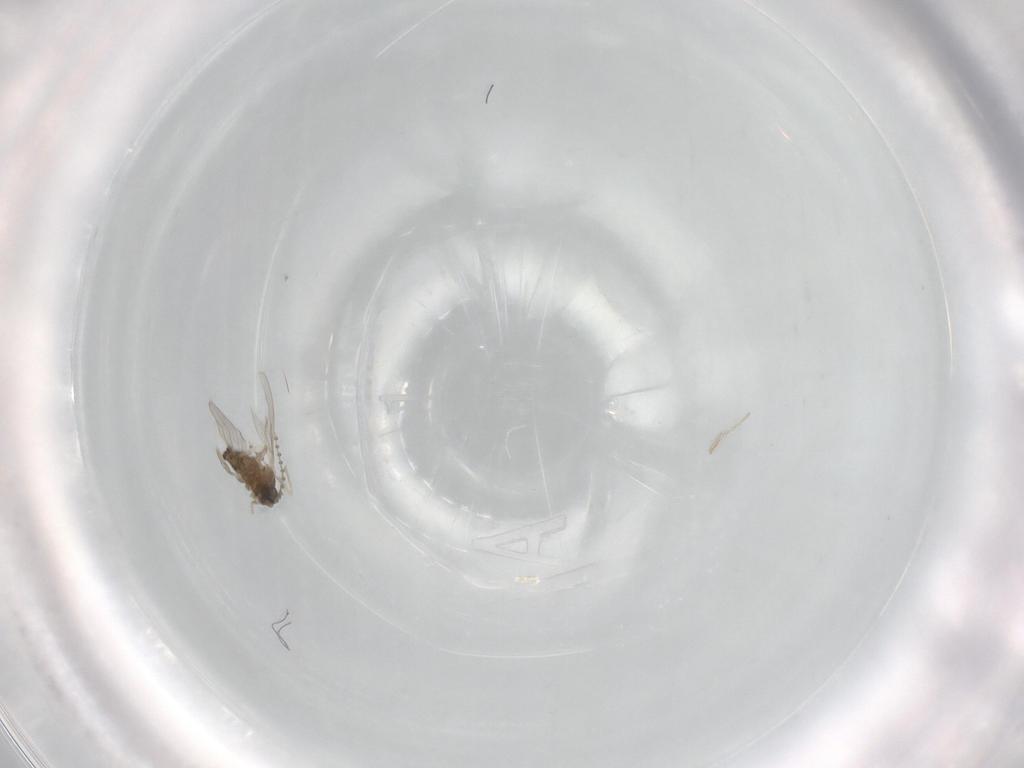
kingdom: Animalia
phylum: Arthropoda
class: Insecta
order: Diptera
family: Cecidomyiidae
